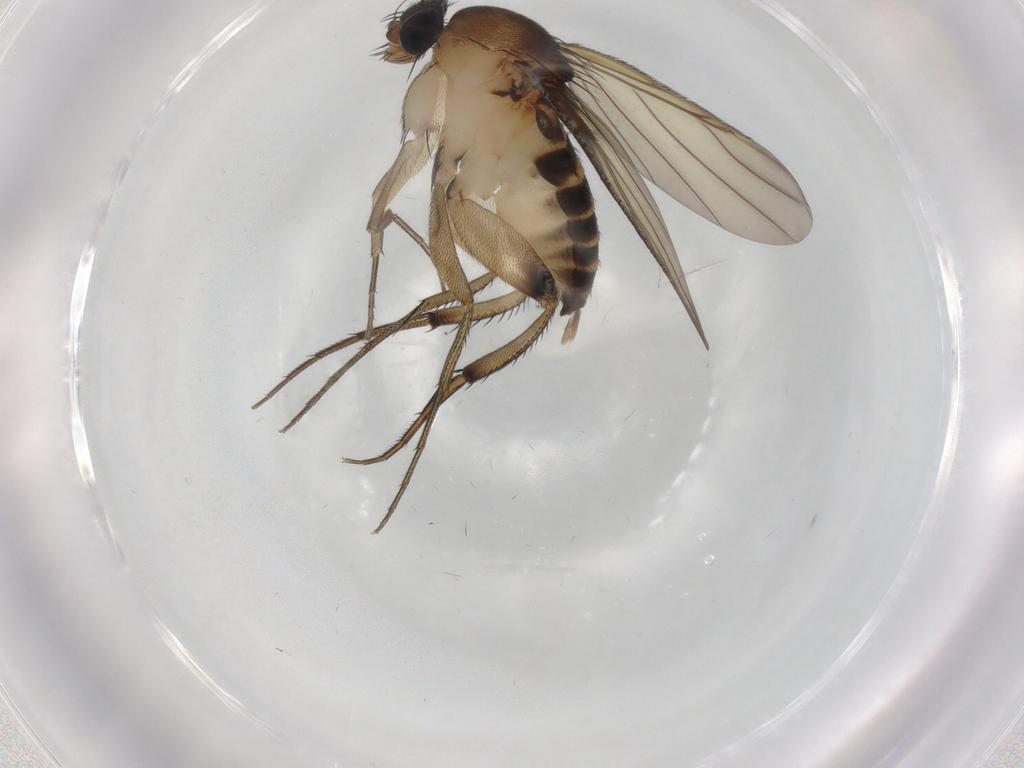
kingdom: Animalia
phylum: Arthropoda
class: Insecta
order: Diptera
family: Phoridae
